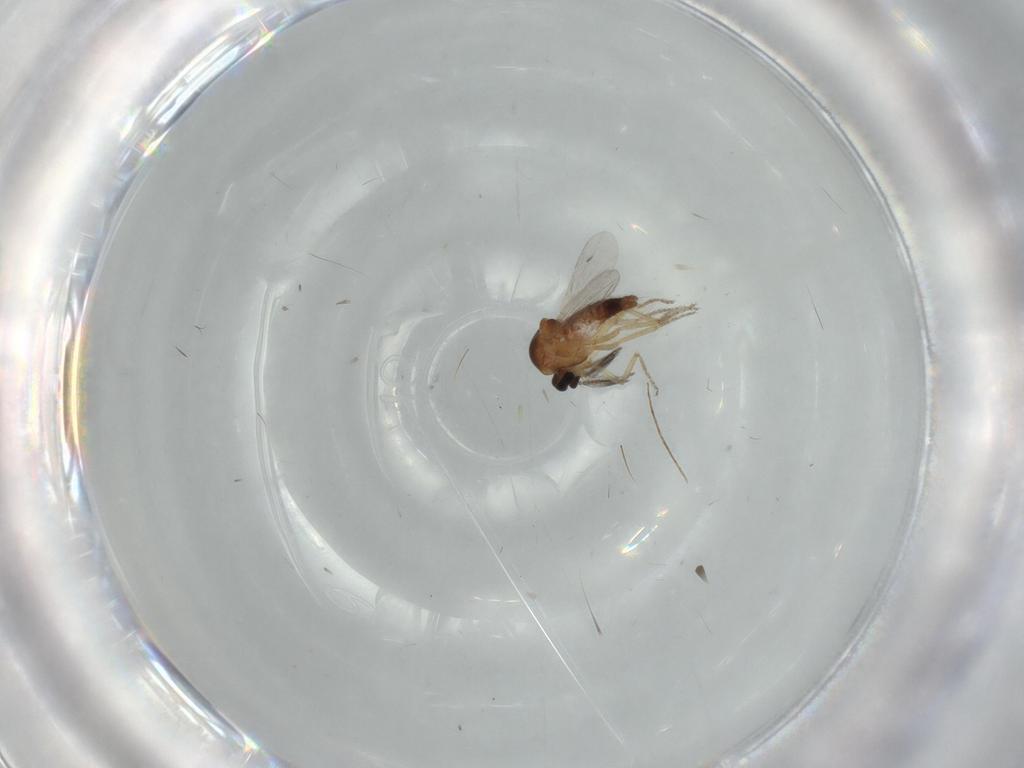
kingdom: Animalia
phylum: Arthropoda
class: Insecta
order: Diptera
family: Ceratopogonidae
